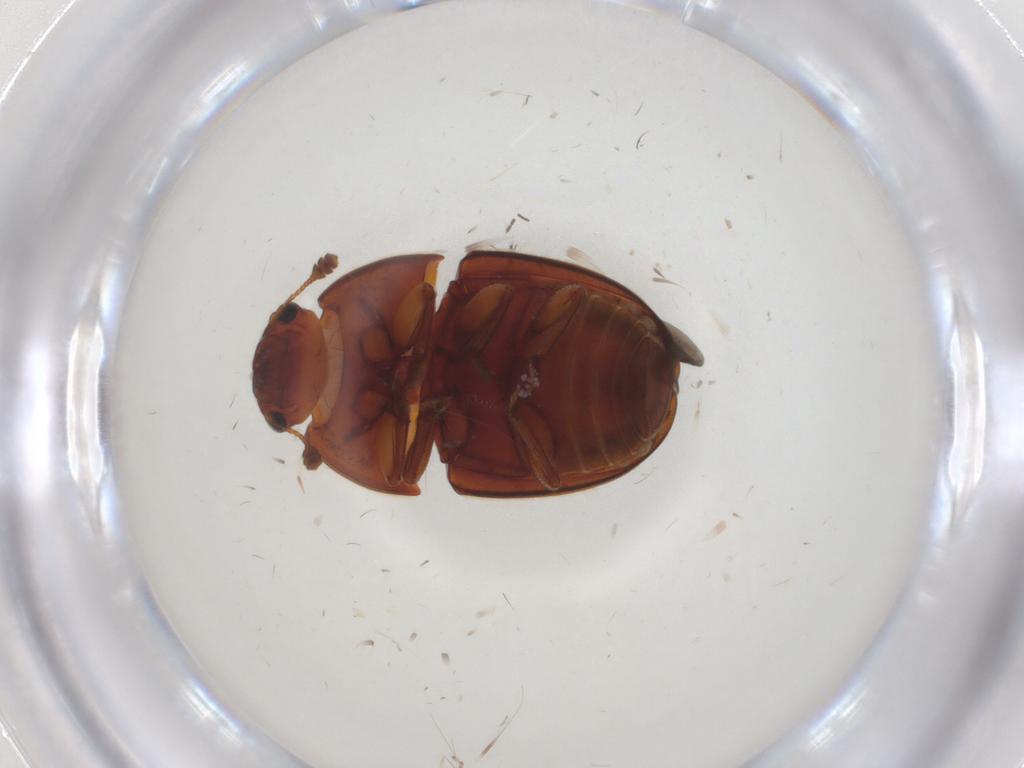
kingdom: Animalia
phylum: Arthropoda
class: Insecta
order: Coleoptera
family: Nitidulidae
